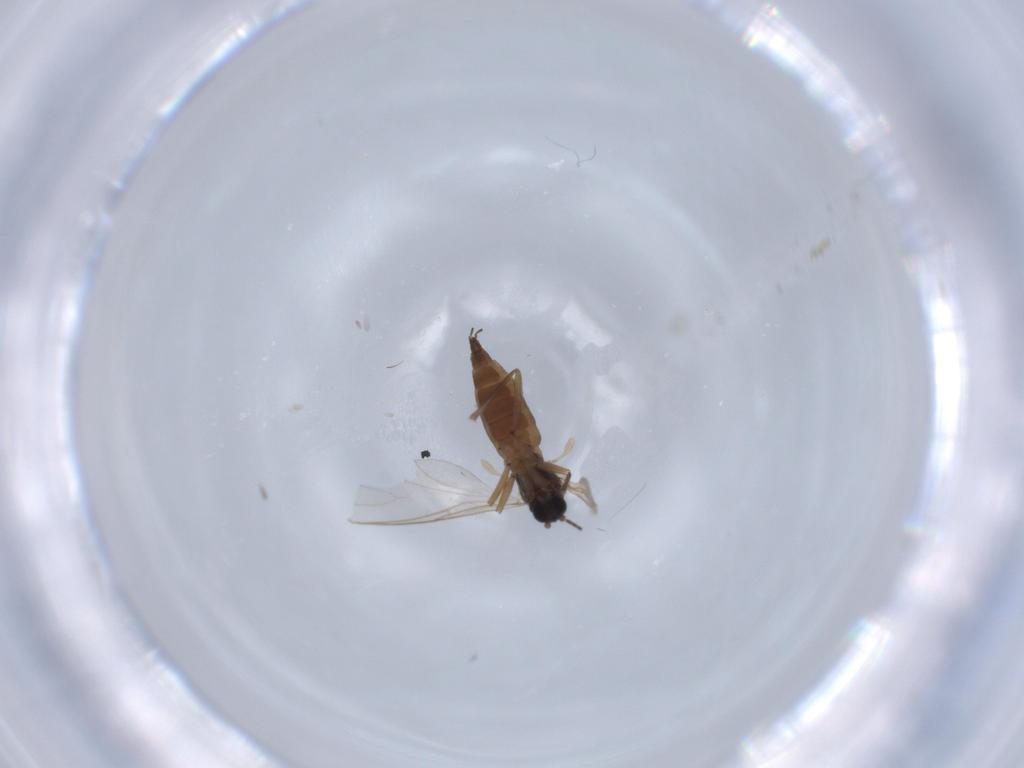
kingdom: Animalia
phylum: Arthropoda
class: Insecta
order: Diptera
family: Anthomyiidae
